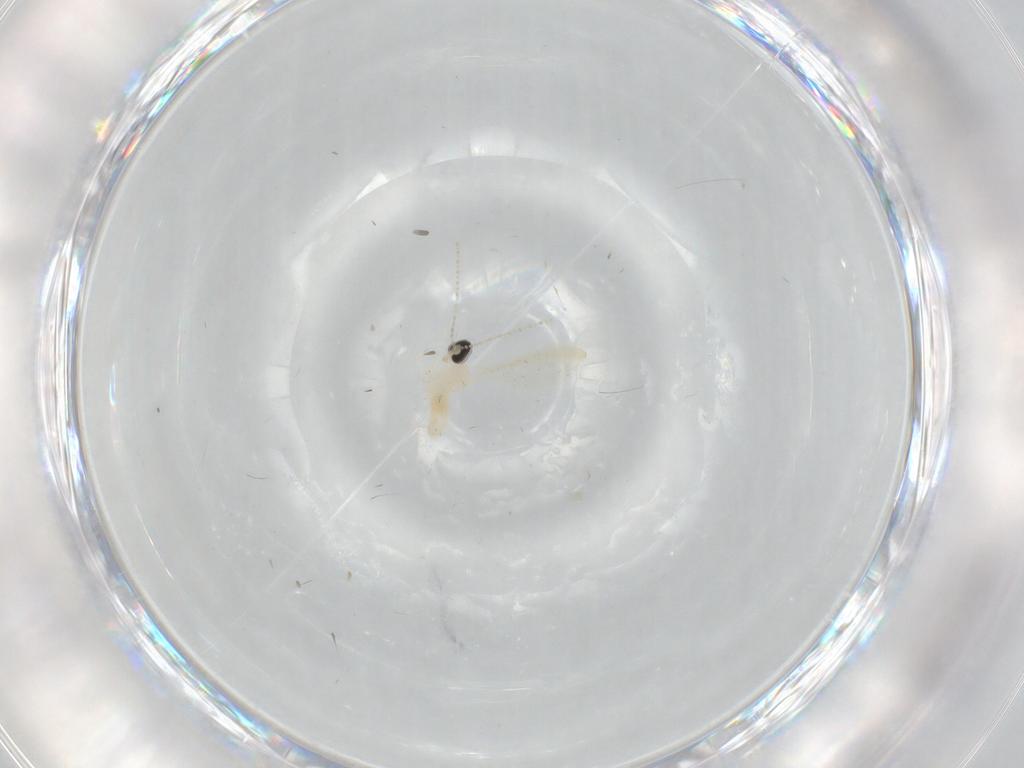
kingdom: Animalia
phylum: Arthropoda
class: Insecta
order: Diptera
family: Cecidomyiidae
